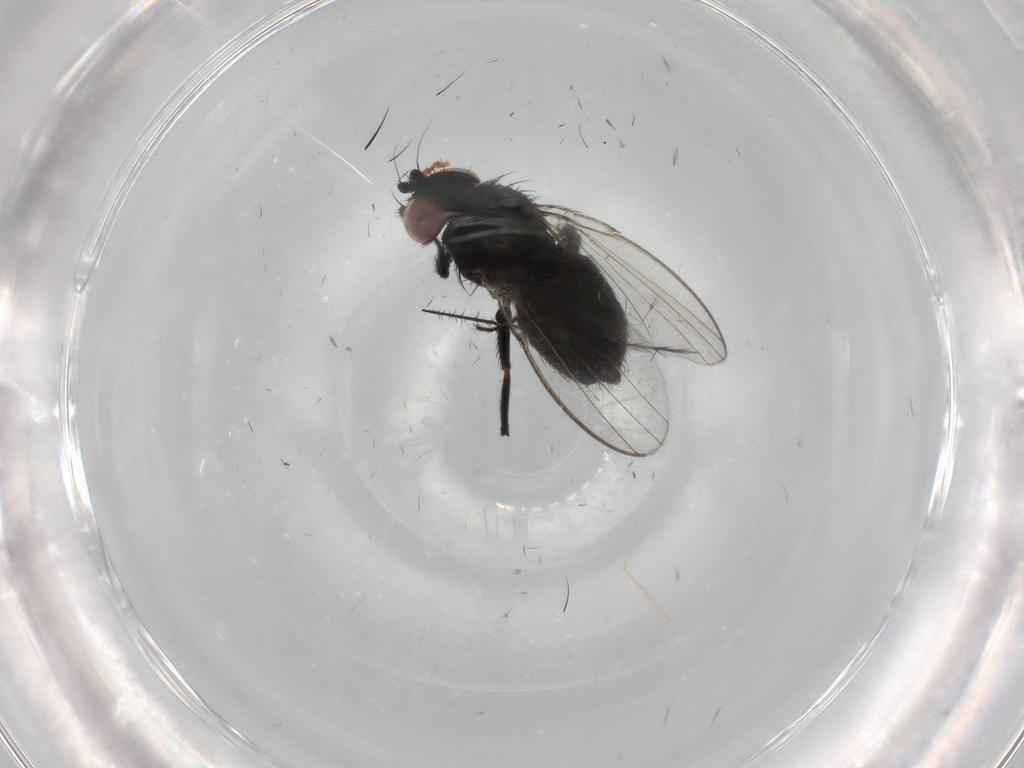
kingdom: Animalia
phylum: Arthropoda
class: Insecta
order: Diptera
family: Milichiidae
